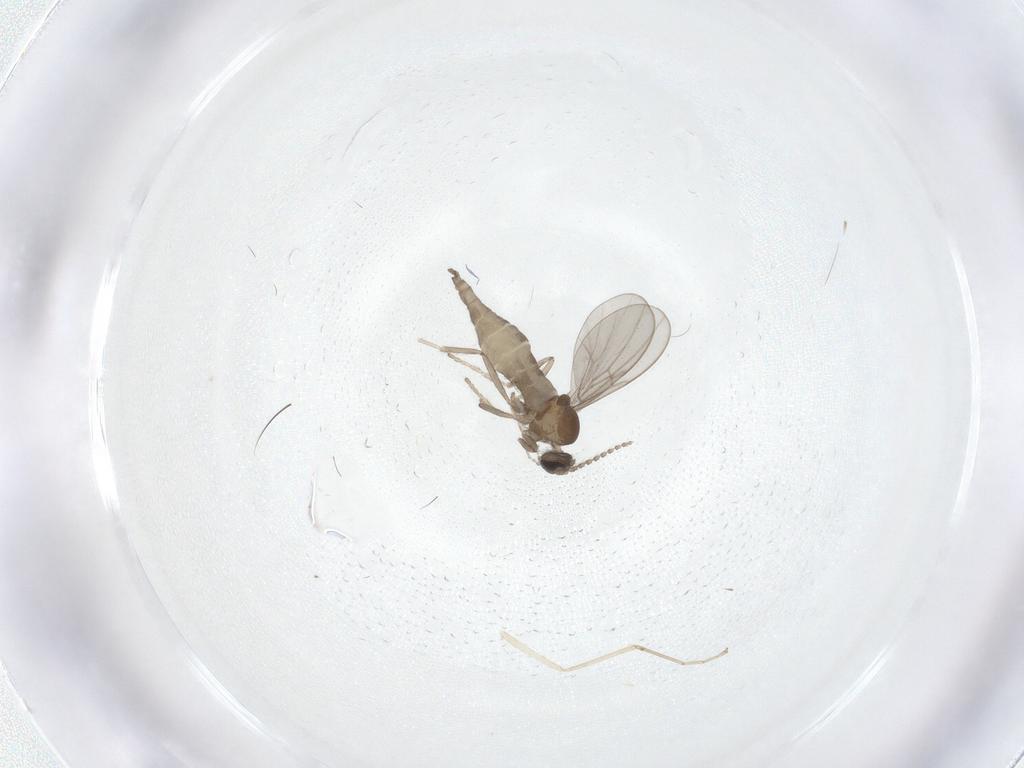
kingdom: Animalia
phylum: Arthropoda
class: Insecta
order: Diptera
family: Cecidomyiidae
